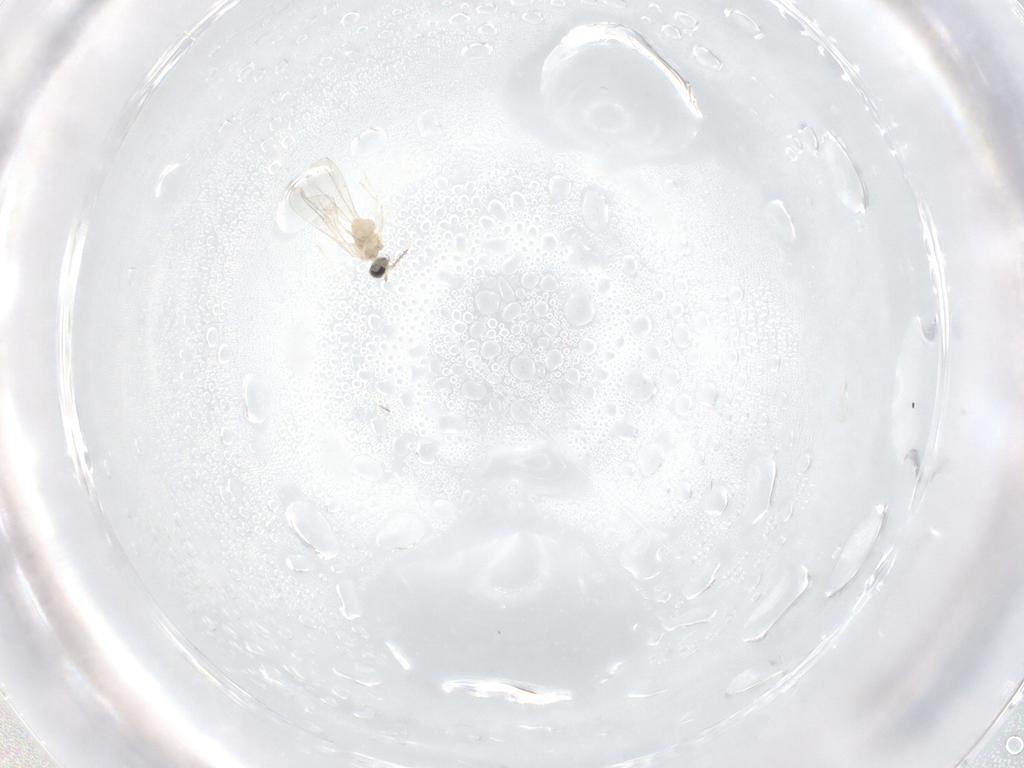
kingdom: Animalia
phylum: Arthropoda
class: Insecta
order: Diptera
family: Cecidomyiidae
